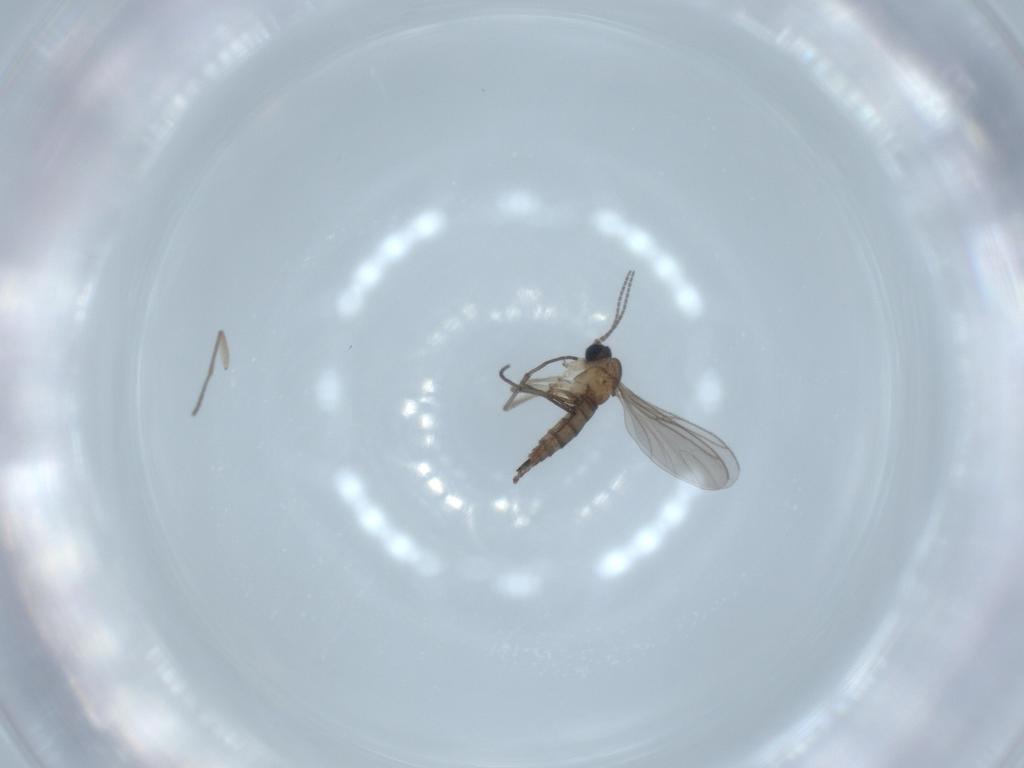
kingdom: Animalia
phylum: Arthropoda
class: Insecta
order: Diptera
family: Sciaridae
